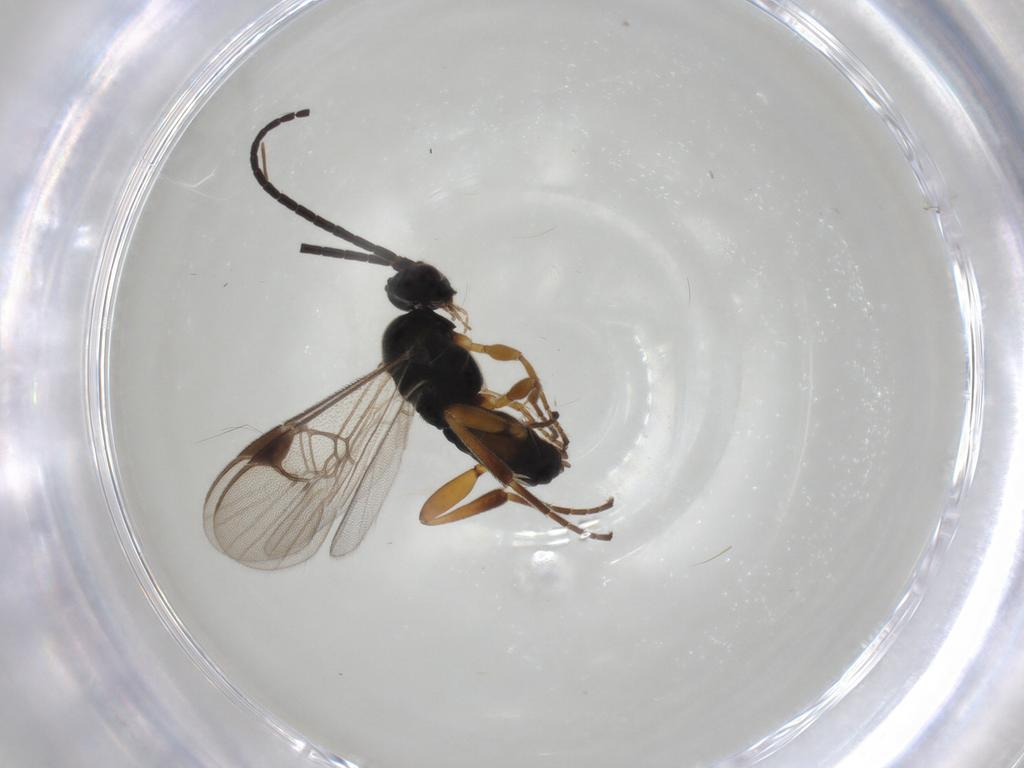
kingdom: Animalia
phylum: Arthropoda
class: Insecta
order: Hymenoptera
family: Braconidae
